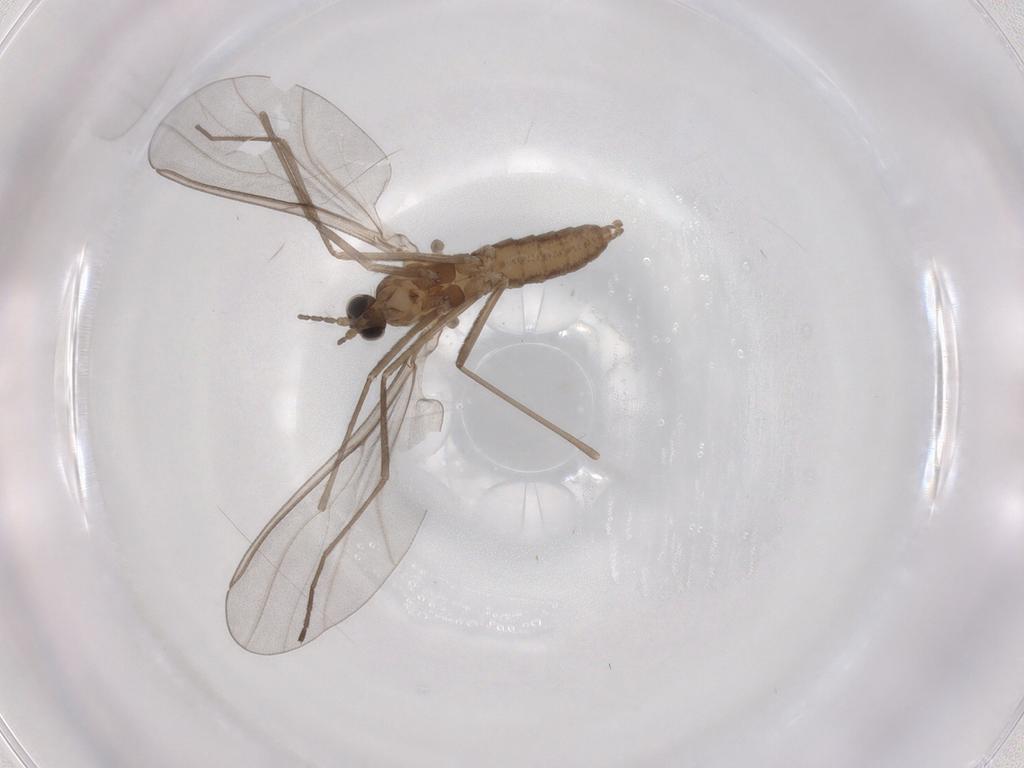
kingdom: Animalia
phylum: Arthropoda
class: Insecta
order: Diptera
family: Cecidomyiidae
